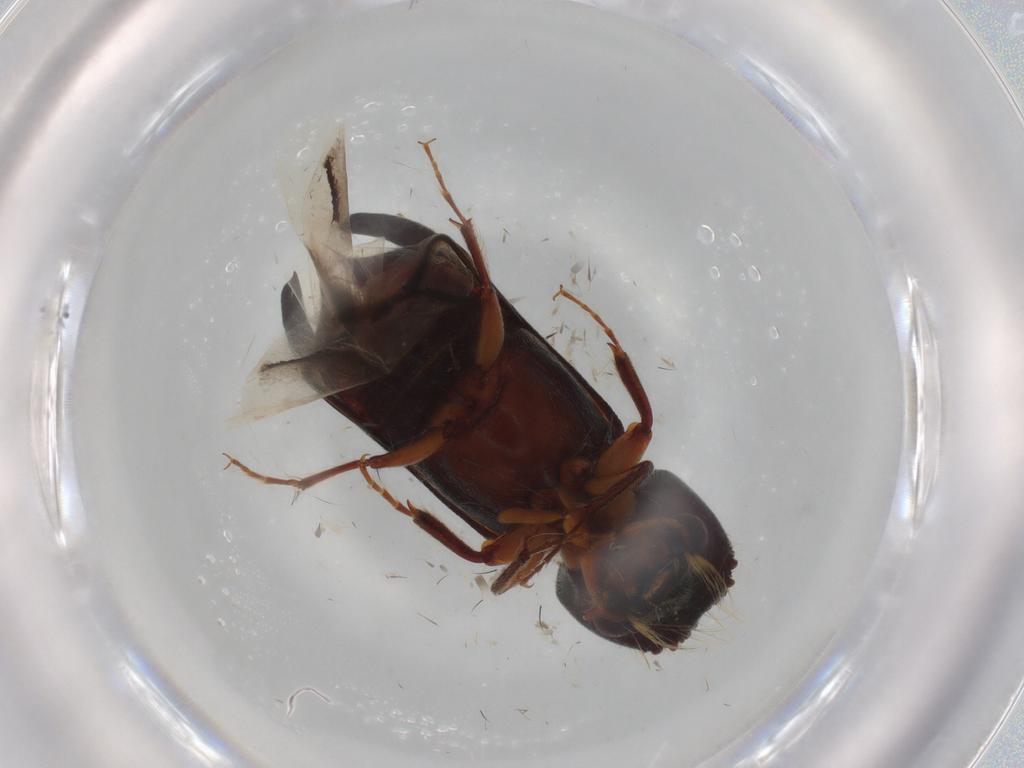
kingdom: Animalia
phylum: Arthropoda
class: Insecta
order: Coleoptera
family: Bostrichidae
